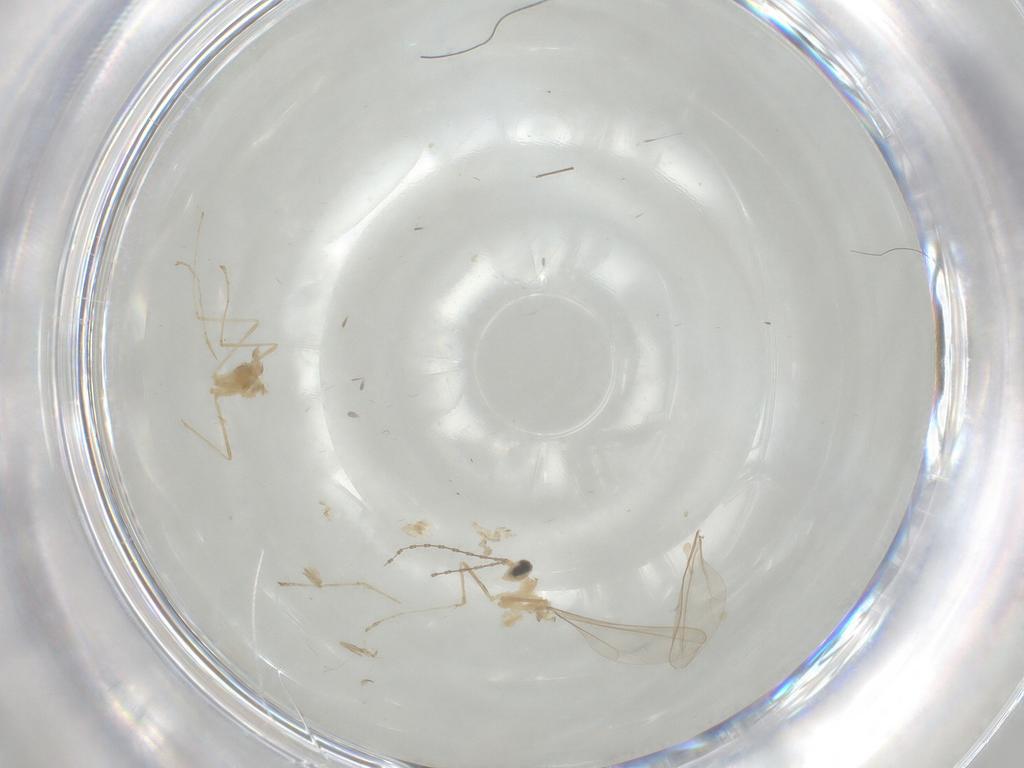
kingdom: Animalia
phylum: Arthropoda
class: Insecta
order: Diptera
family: Cecidomyiidae
